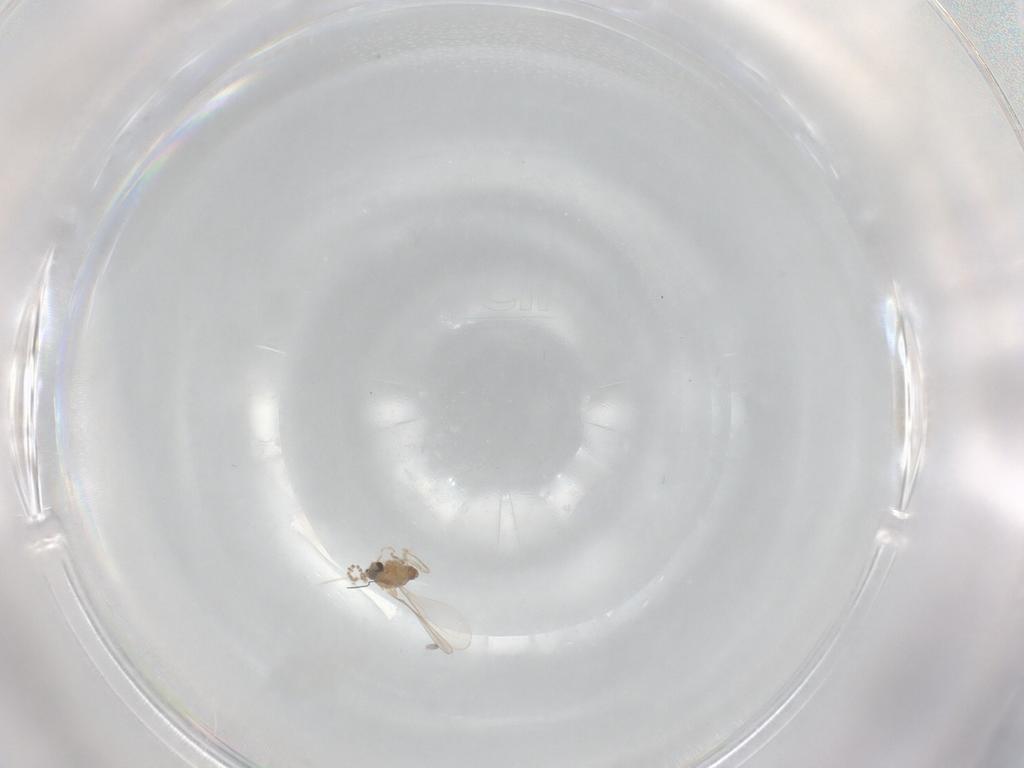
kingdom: Animalia
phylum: Arthropoda
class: Insecta
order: Diptera
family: Cecidomyiidae
